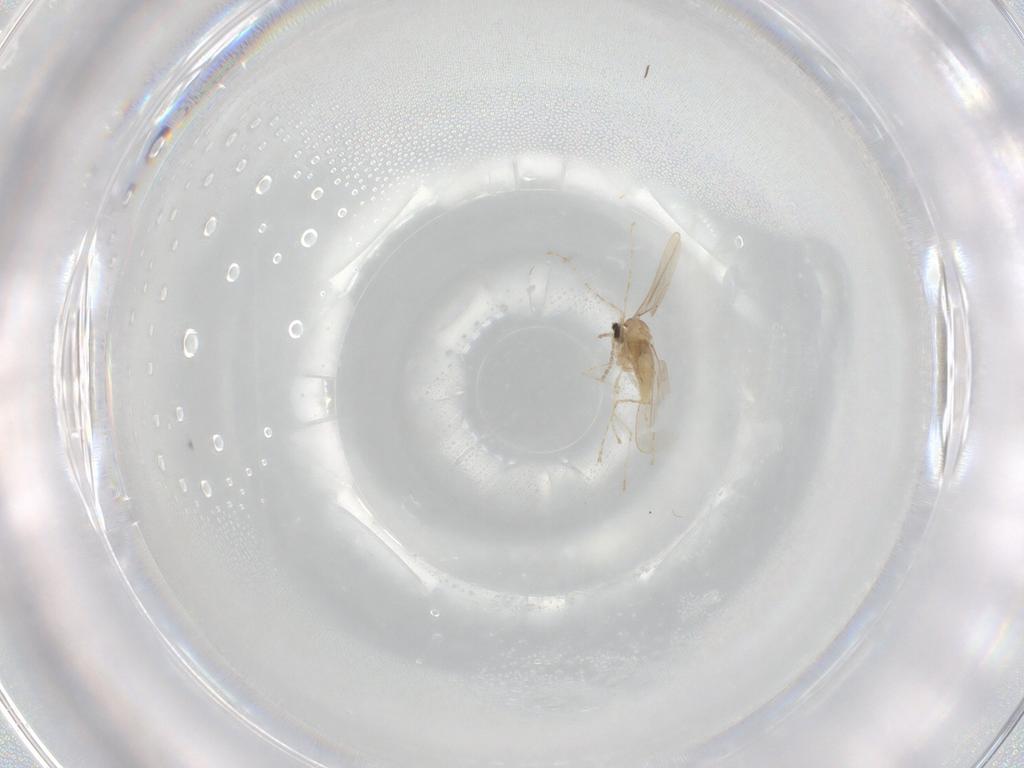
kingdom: Animalia
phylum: Arthropoda
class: Insecta
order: Diptera
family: Cecidomyiidae
